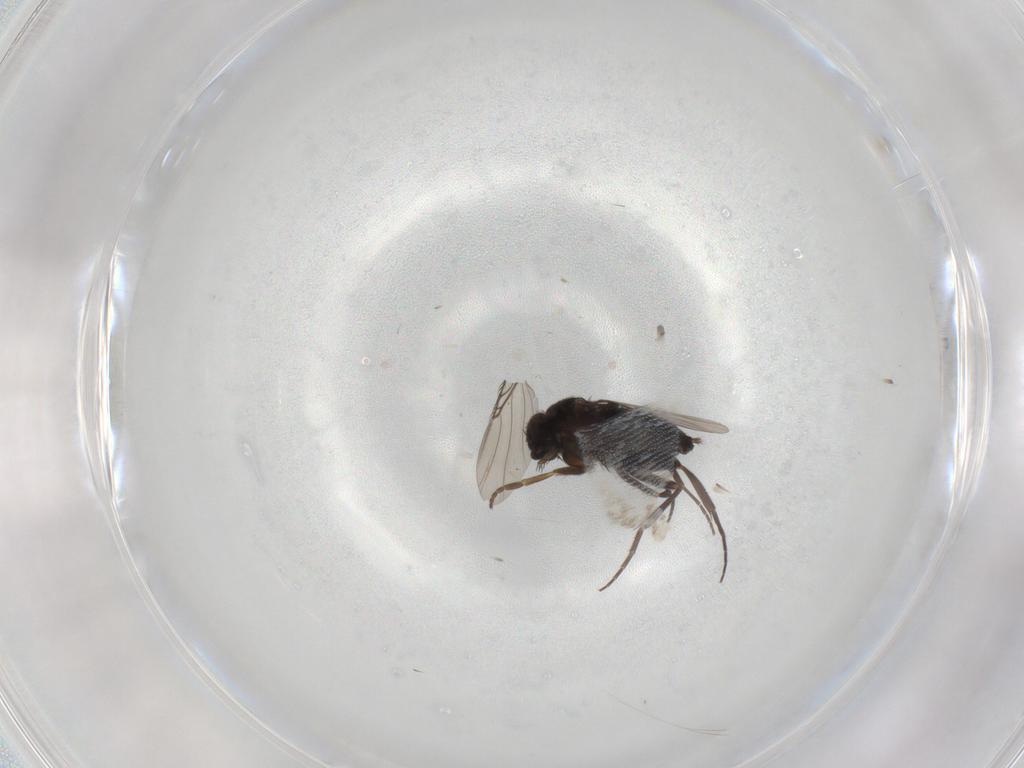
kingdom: Animalia
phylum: Arthropoda
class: Insecta
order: Diptera
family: Phoridae
